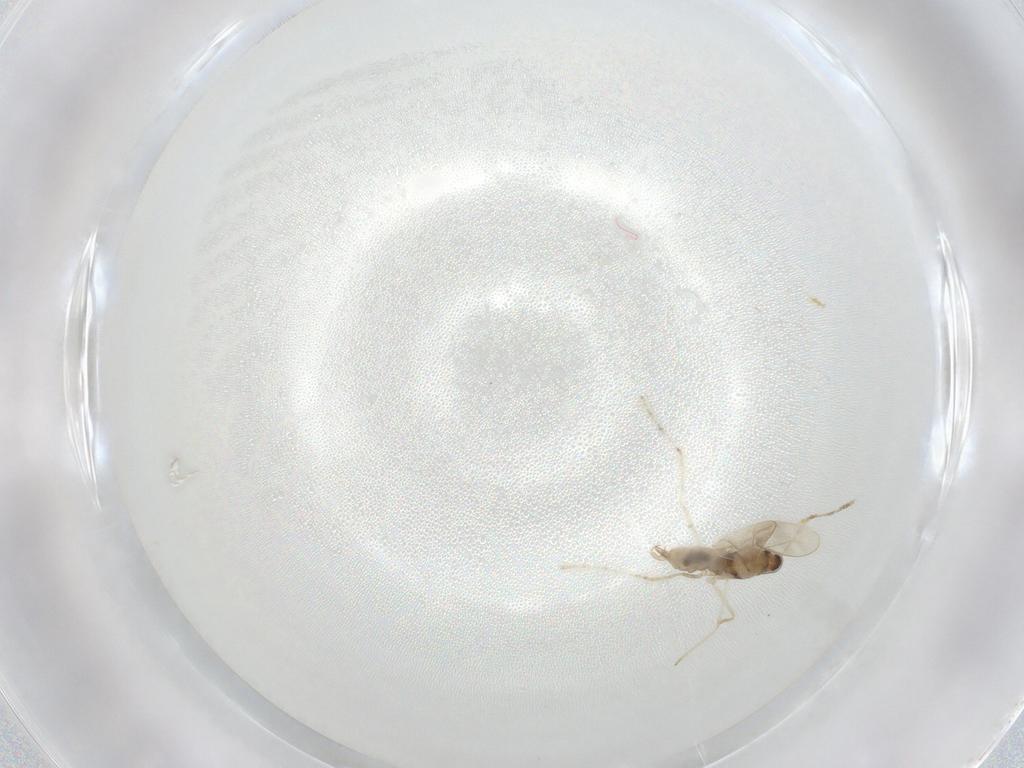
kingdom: Animalia
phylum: Arthropoda
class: Insecta
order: Diptera
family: Cecidomyiidae
